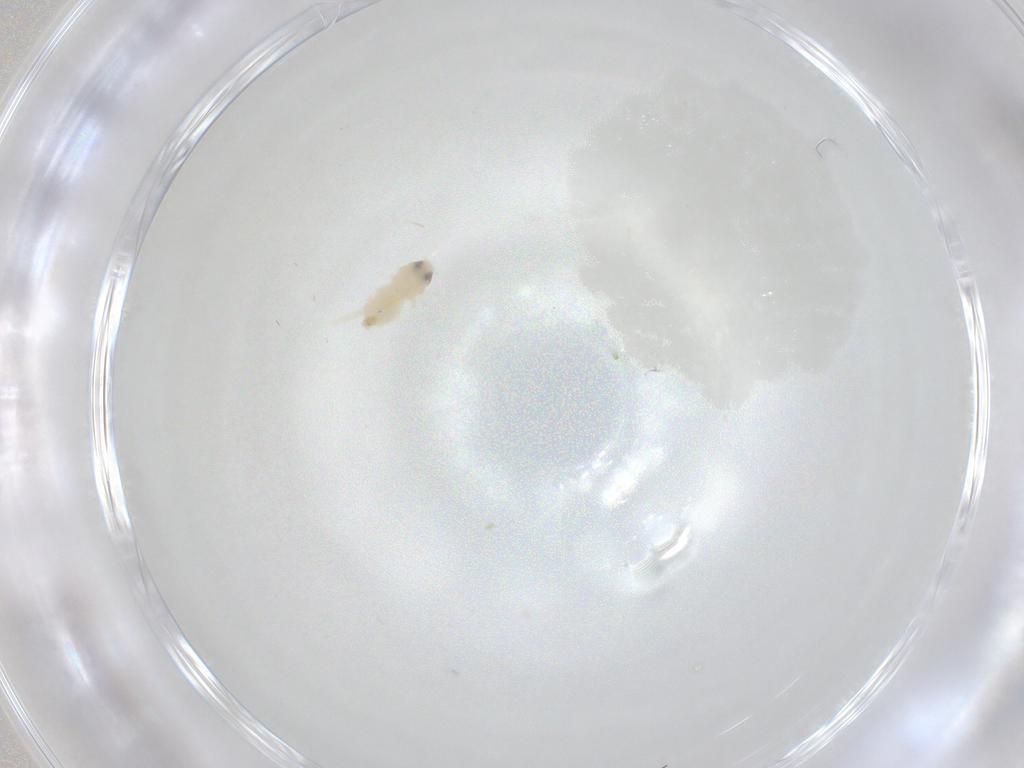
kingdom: Animalia
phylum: Arthropoda
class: Insecta
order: Hemiptera
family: Aleyrodidae
